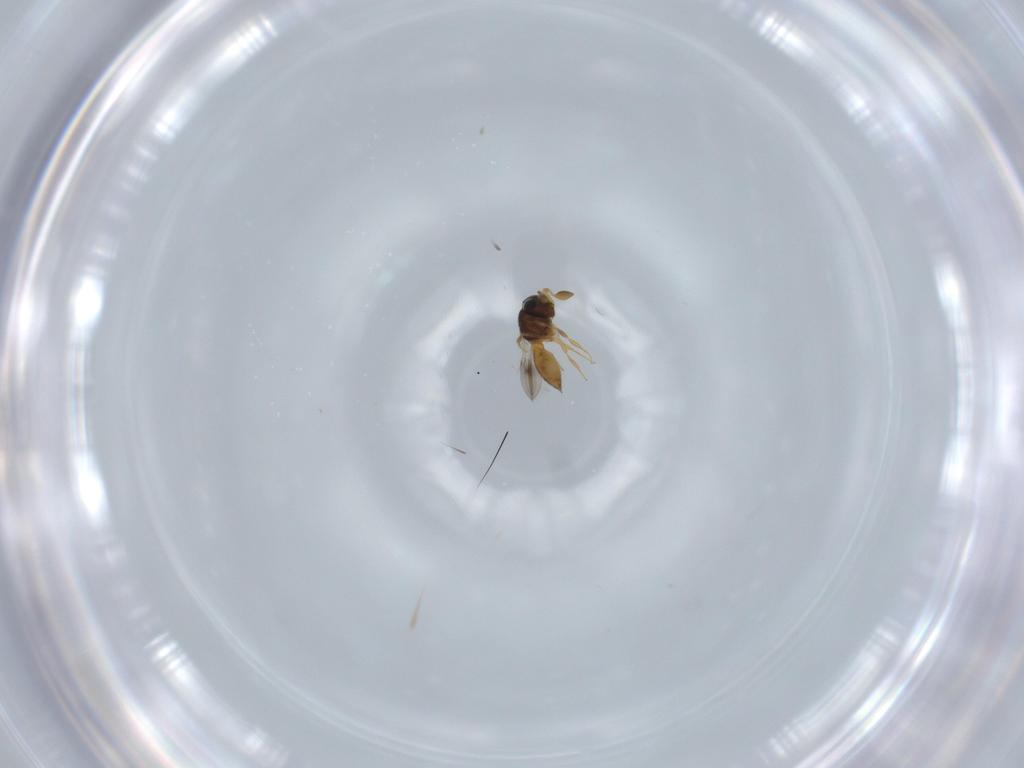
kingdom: Animalia
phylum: Arthropoda
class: Insecta
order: Hymenoptera
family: Scelionidae
